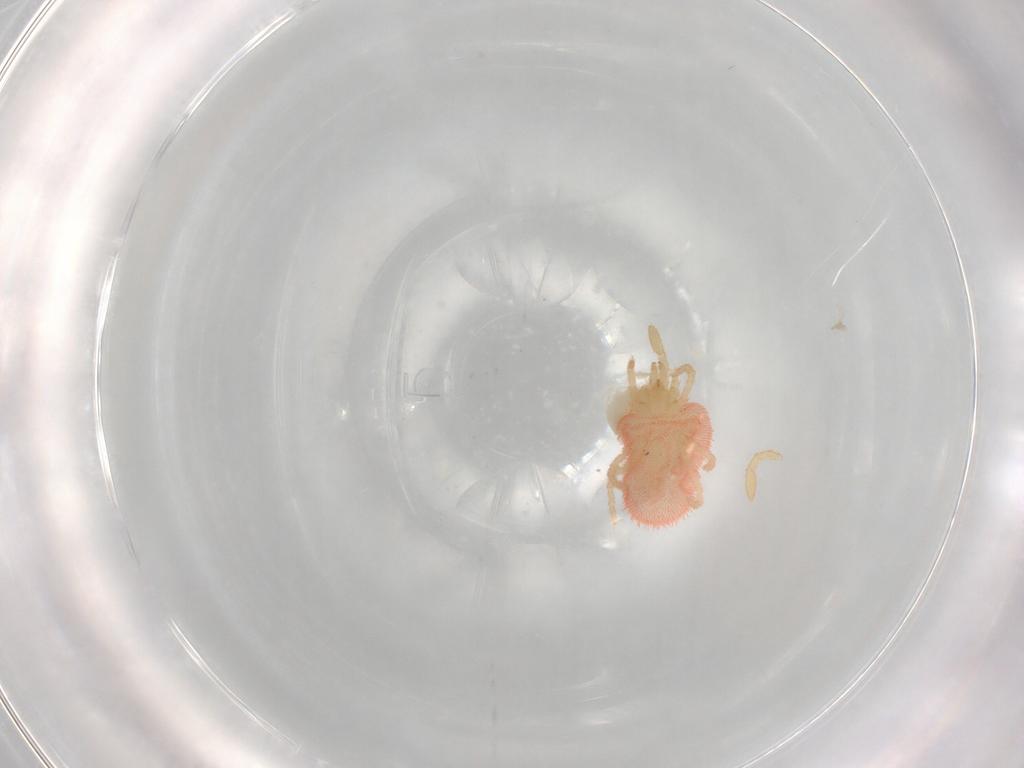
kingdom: Animalia
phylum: Arthropoda
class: Arachnida
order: Trombidiformes
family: Trombidiidae
